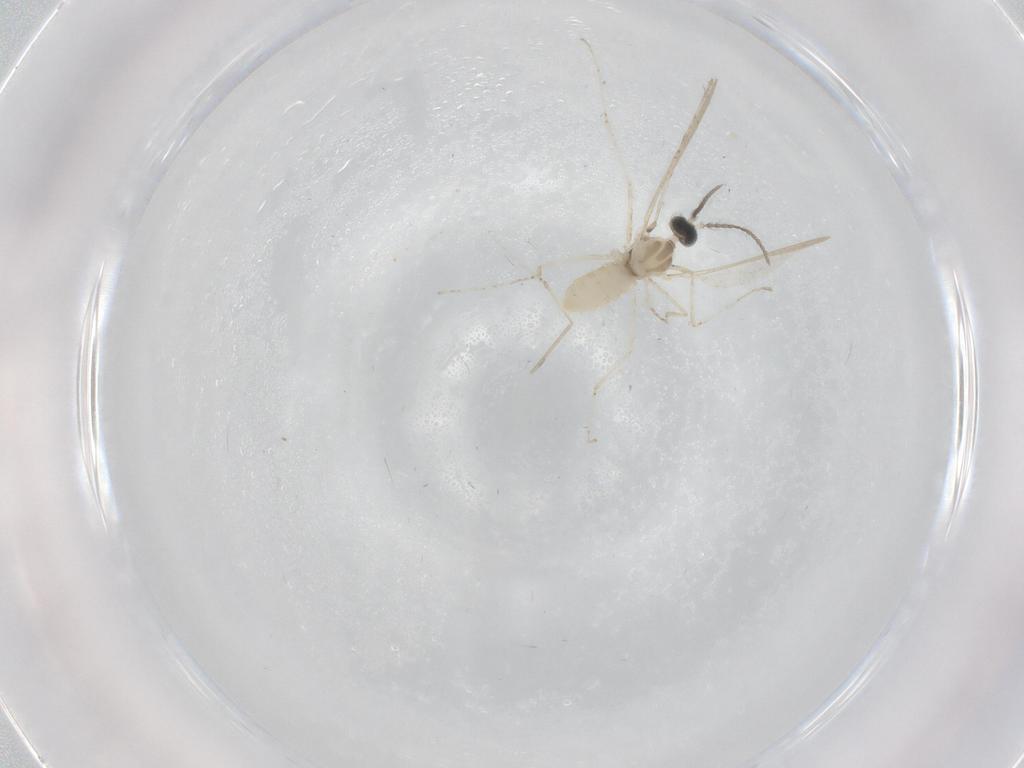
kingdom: Animalia
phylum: Arthropoda
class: Insecta
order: Diptera
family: Cecidomyiidae
